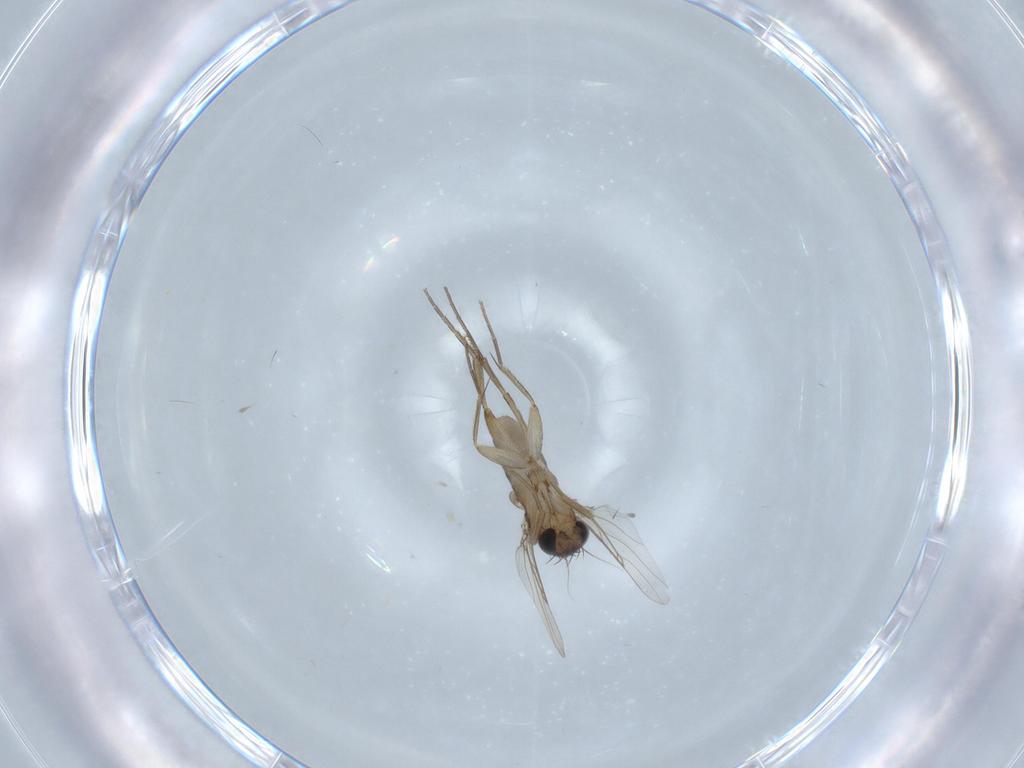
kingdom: Animalia
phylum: Arthropoda
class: Insecta
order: Diptera
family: Phoridae
